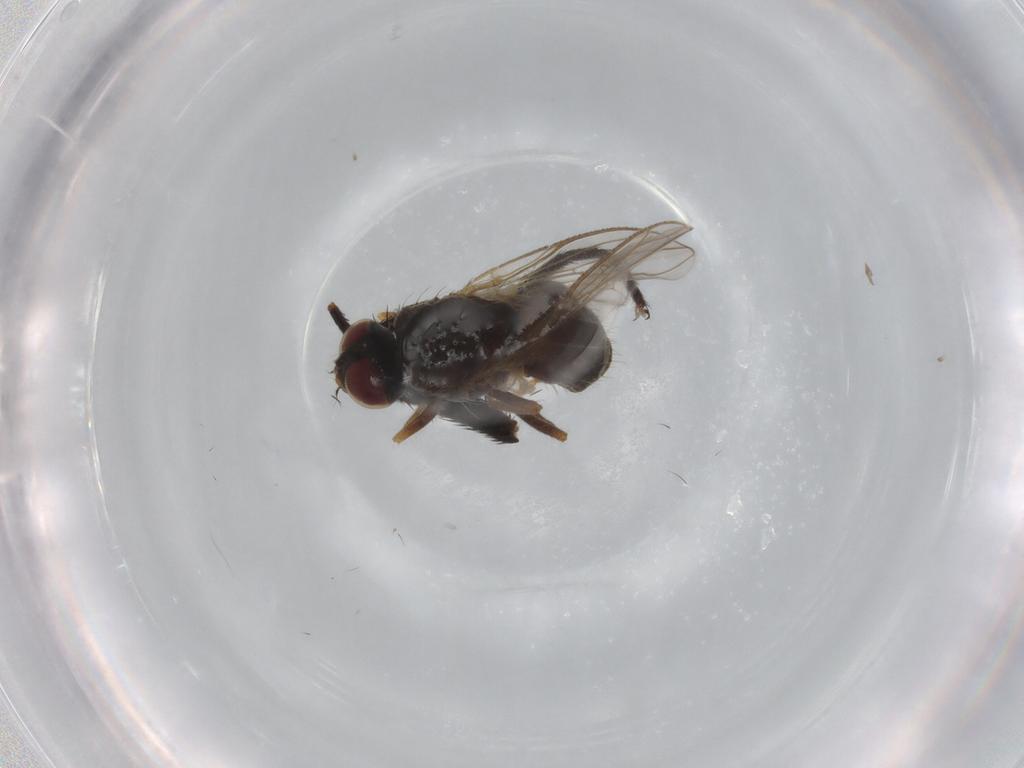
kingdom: Animalia
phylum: Arthropoda
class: Insecta
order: Diptera
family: Muscidae
